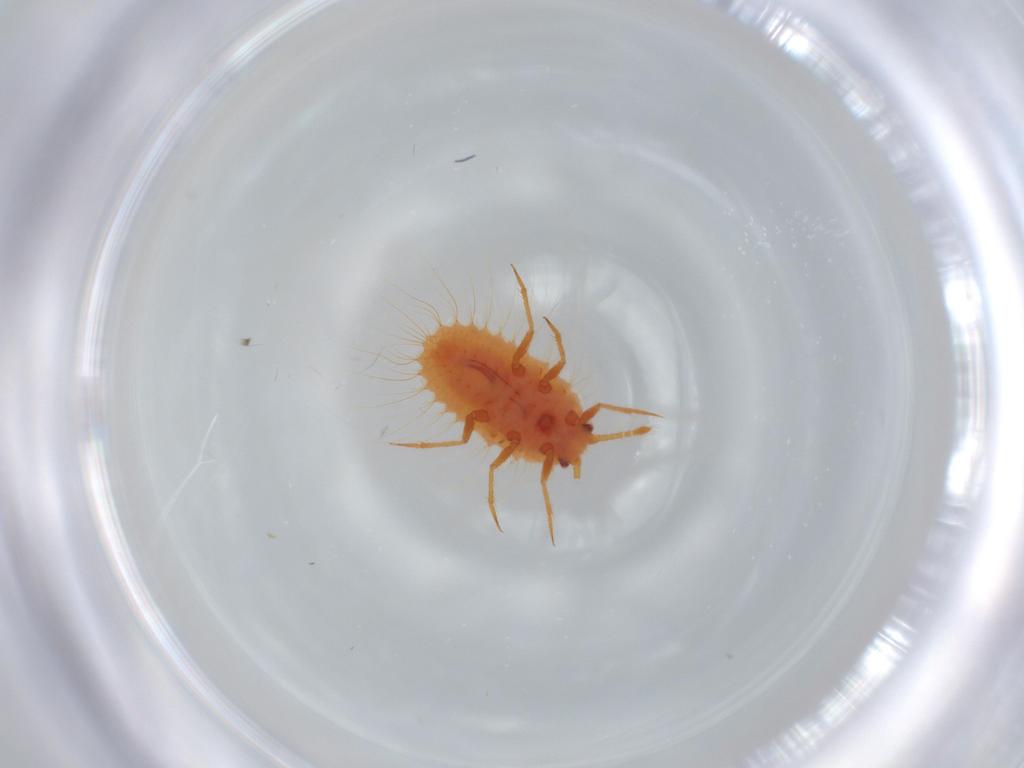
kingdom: Animalia
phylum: Arthropoda
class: Insecta
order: Hemiptera
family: Coccoidea_incertae_sedis
